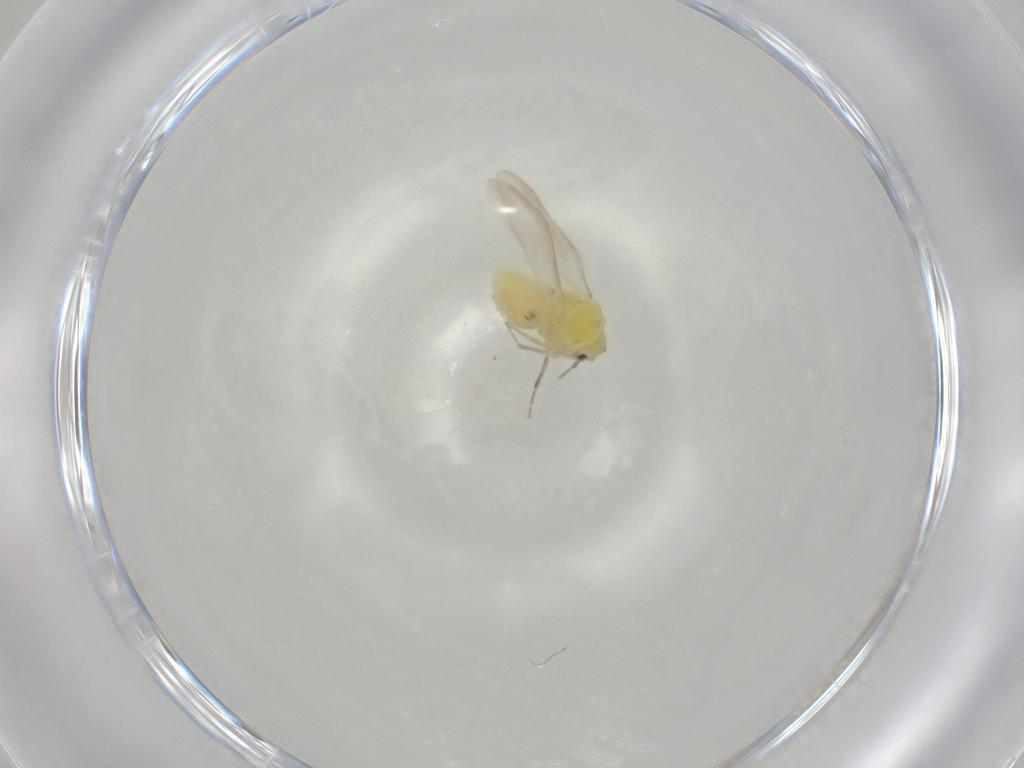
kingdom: Animalia
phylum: Arthropoda
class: Insecta
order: Hemiptera
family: Aleyrodidae
